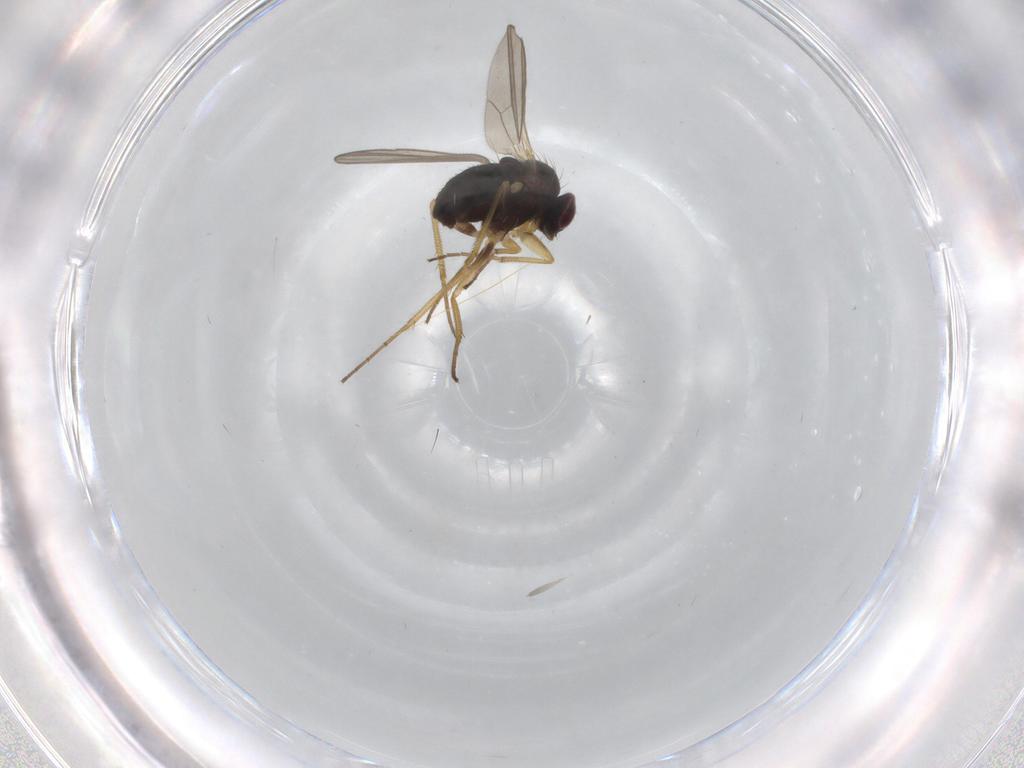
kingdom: Animalia
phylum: Arthropoda
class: Insecta
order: Diptera
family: Dolichopodidae
